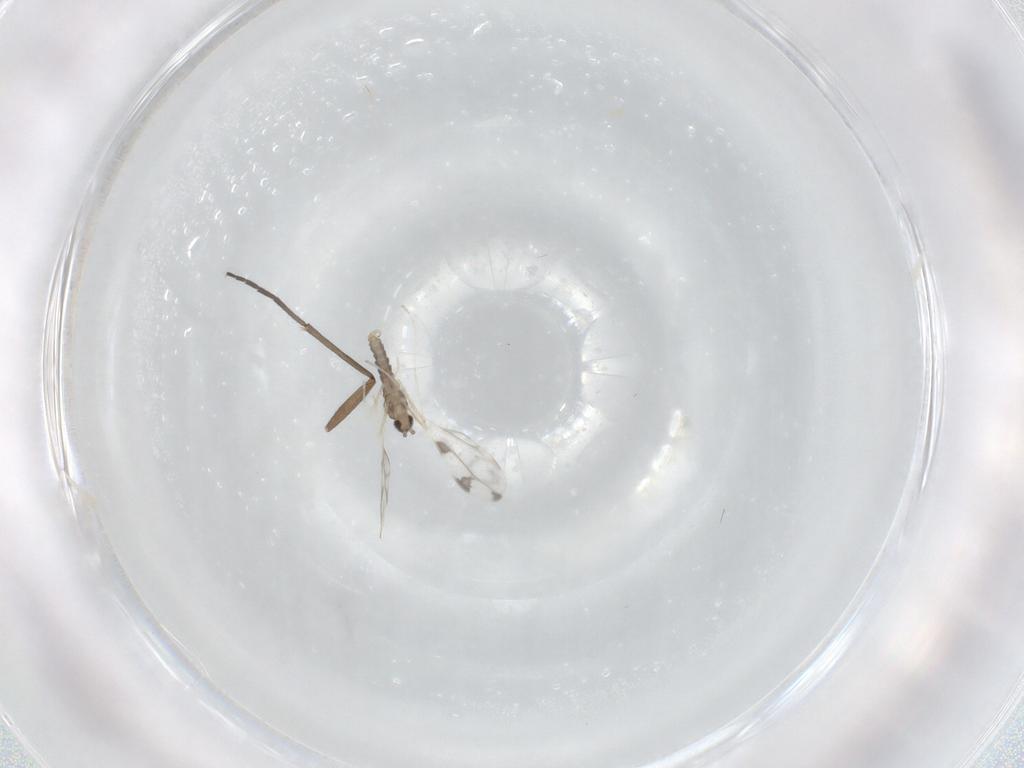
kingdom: Animalia
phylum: Arthropoda
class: Insecta
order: Diptera
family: Cecidomyiidae
